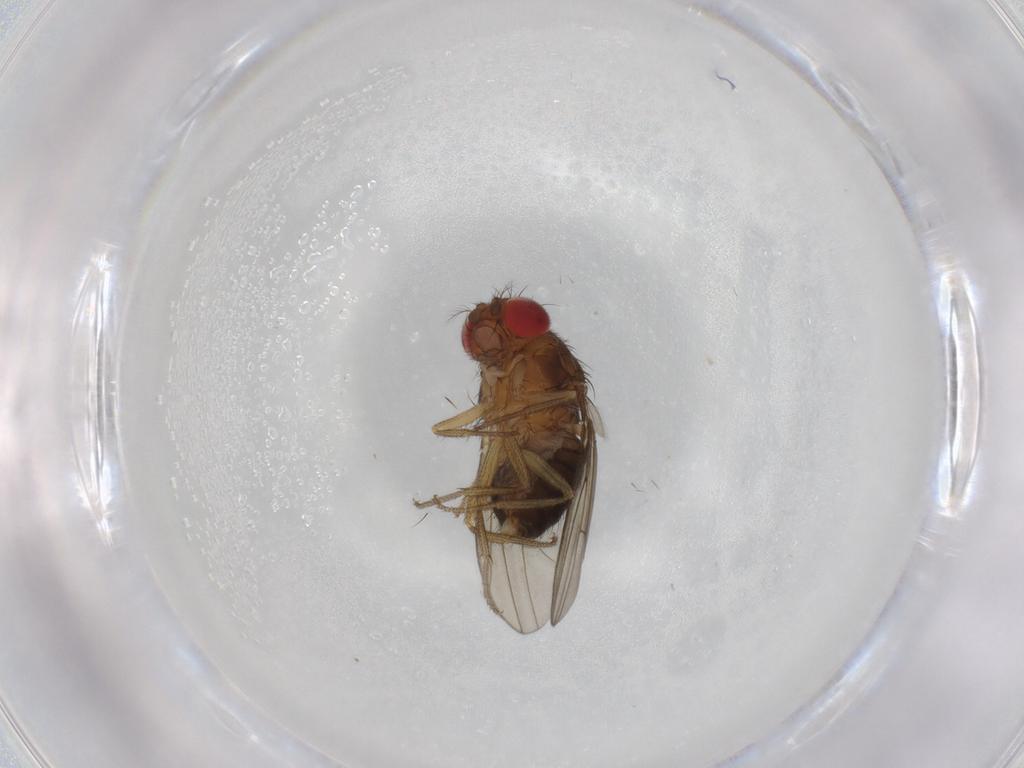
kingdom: Animalia
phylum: Arthropoda
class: Insecta
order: Diptera
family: Drosophilidae
